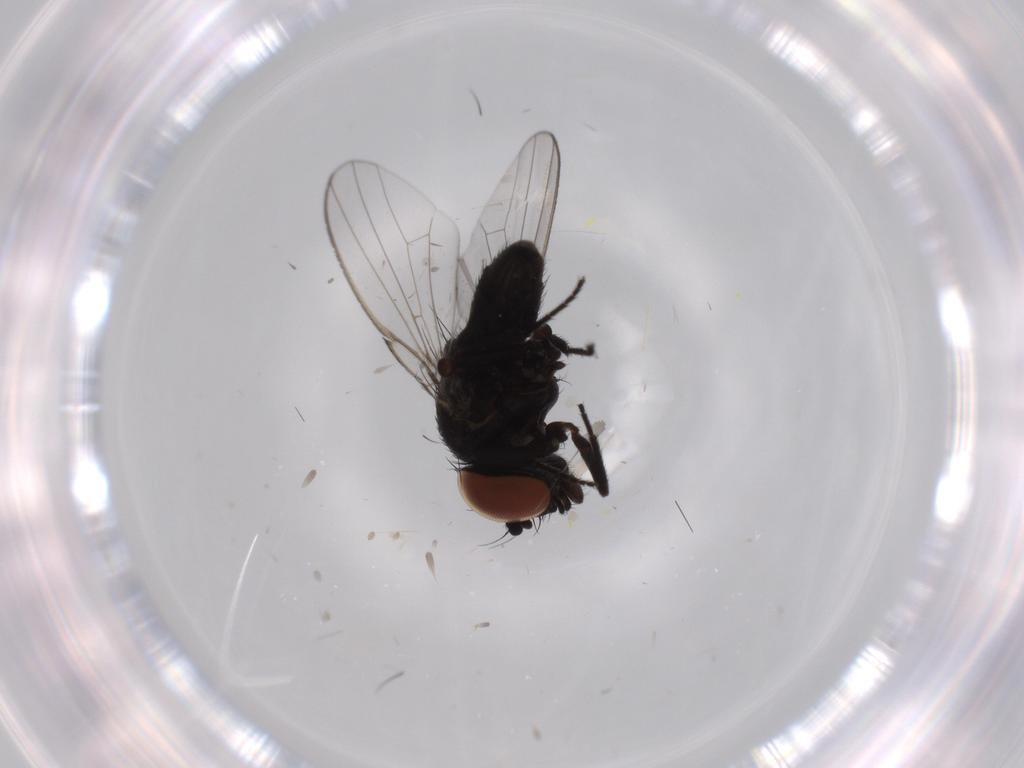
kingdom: Animalia
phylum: Arthropoda
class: Insecta
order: Diptera
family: Milichiidae
